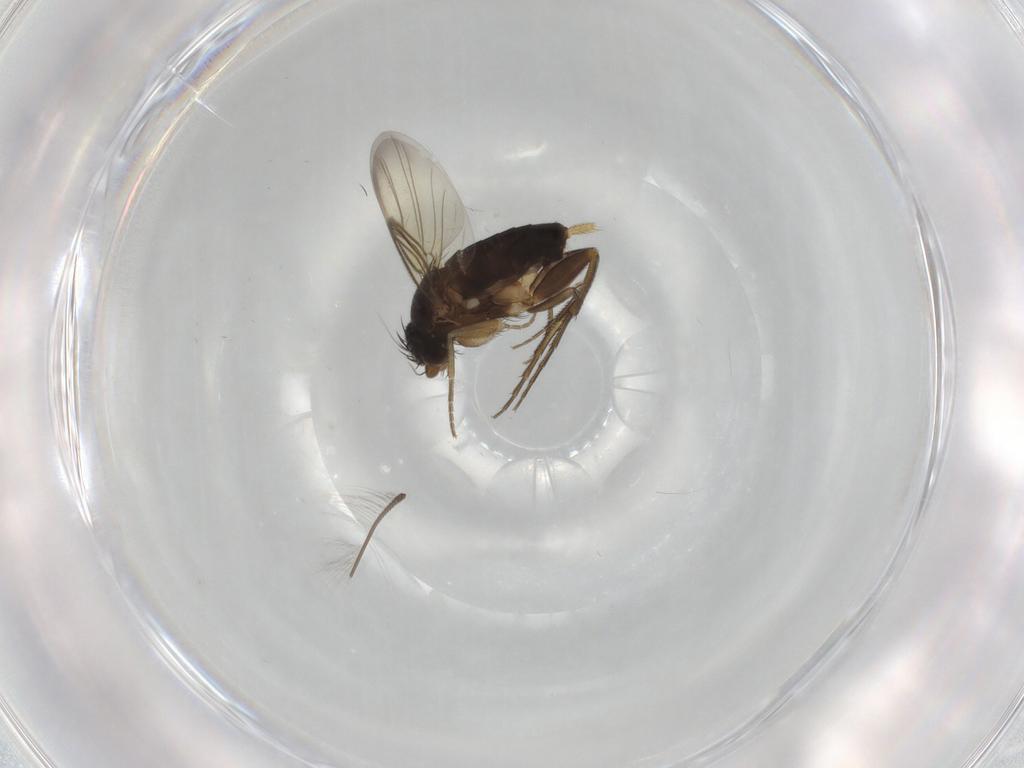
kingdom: Animalia
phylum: Arthropoda
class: Insecta
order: Diptera
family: Phoridae
